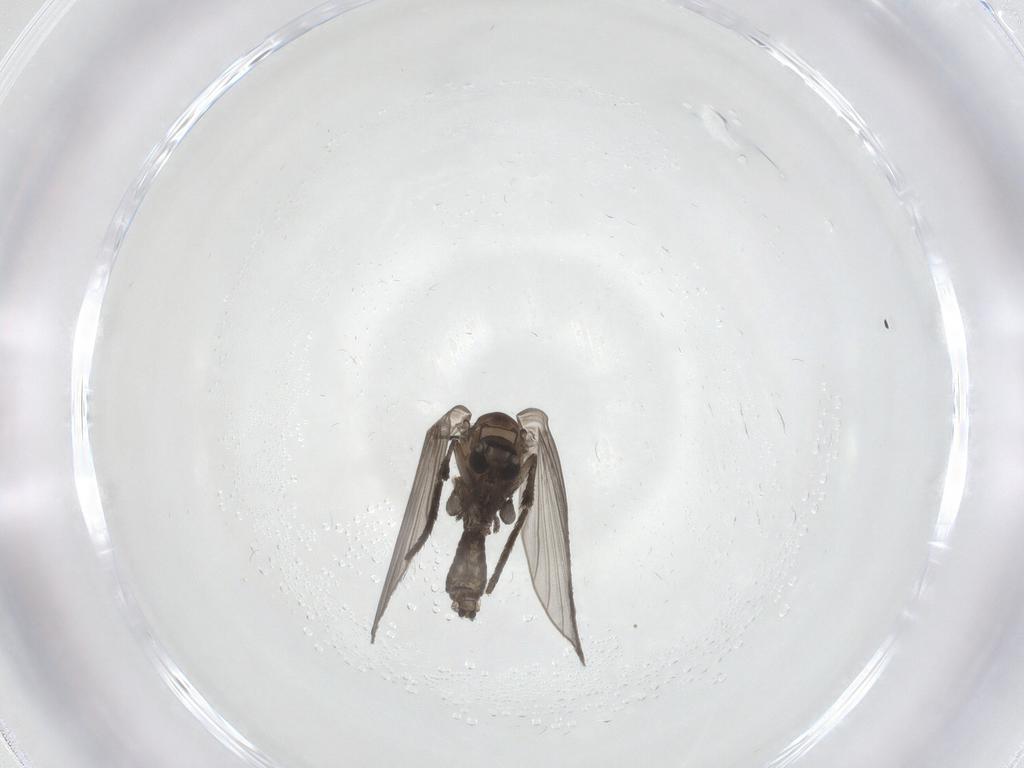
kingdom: Animalia
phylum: Arthropoda
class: Insecta
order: Diptera
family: Psychodidae
